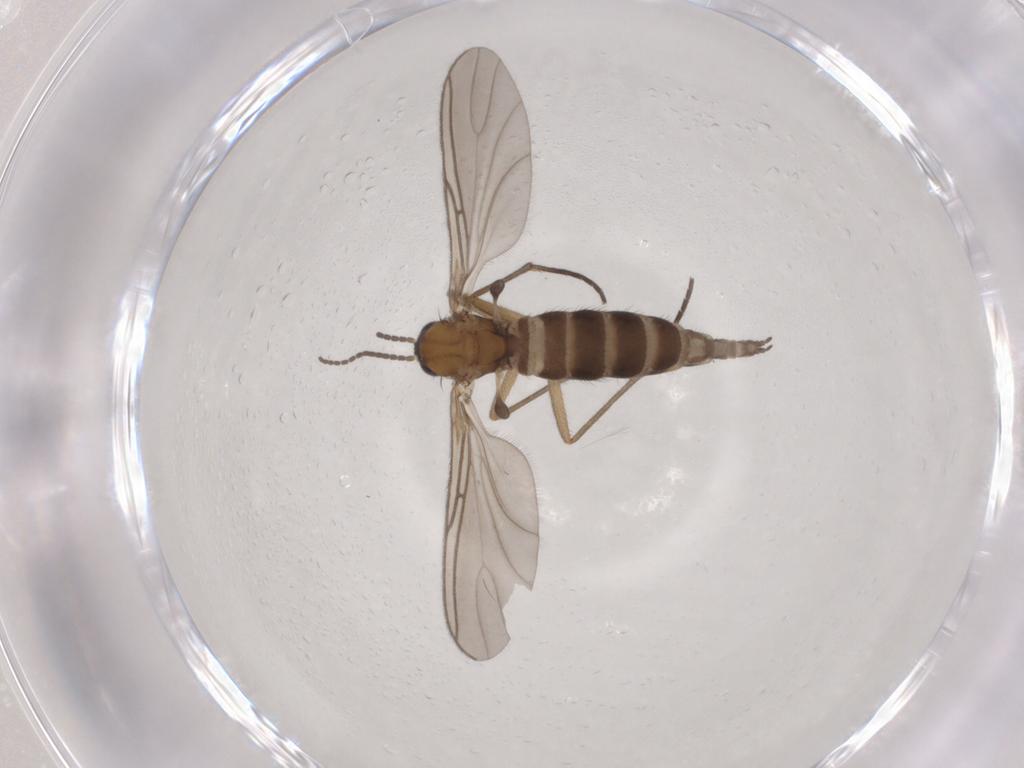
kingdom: Animalia
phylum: Arthropoda
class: Insecta
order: Diptera
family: Sciaridae
